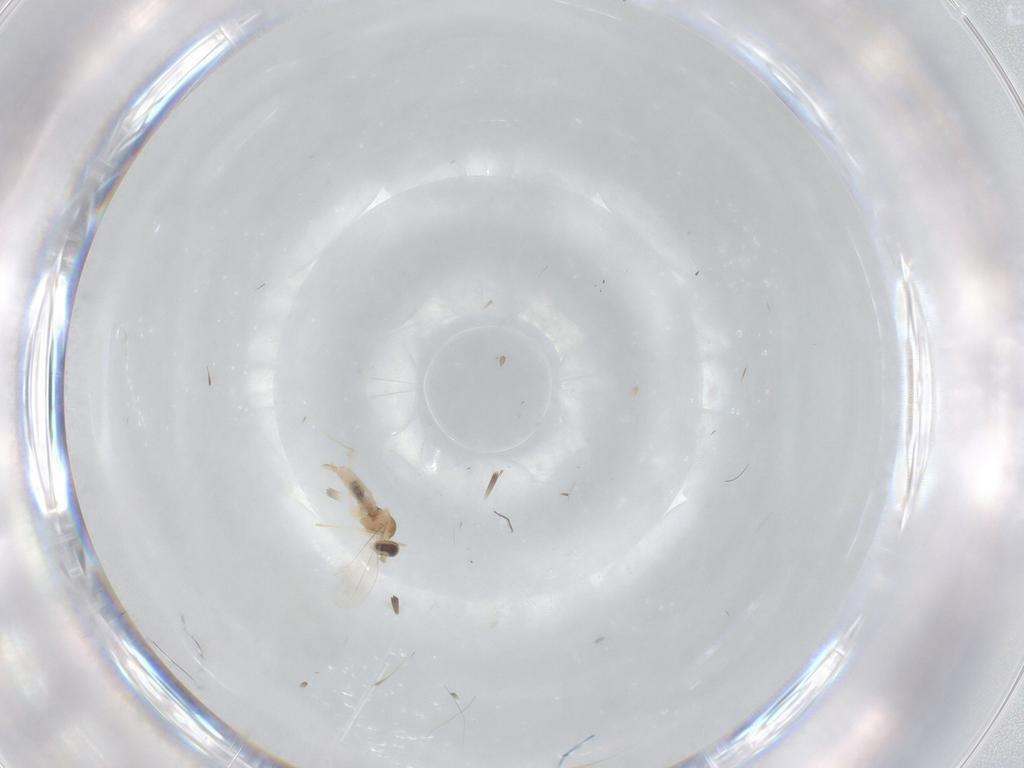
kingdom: Animalia
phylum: Arthropoda
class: Insecta
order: Diptera
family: Cecidomyiidae
